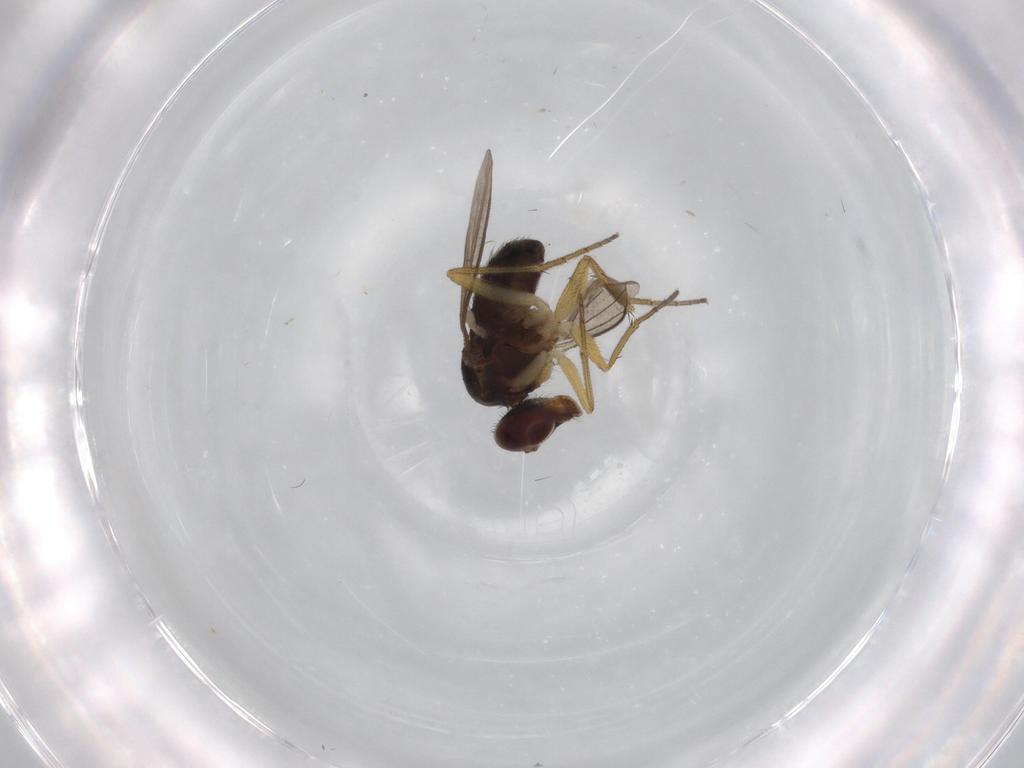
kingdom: Animalia
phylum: Arthropoda
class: Insecta
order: Diptera
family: Dolichopodidae
